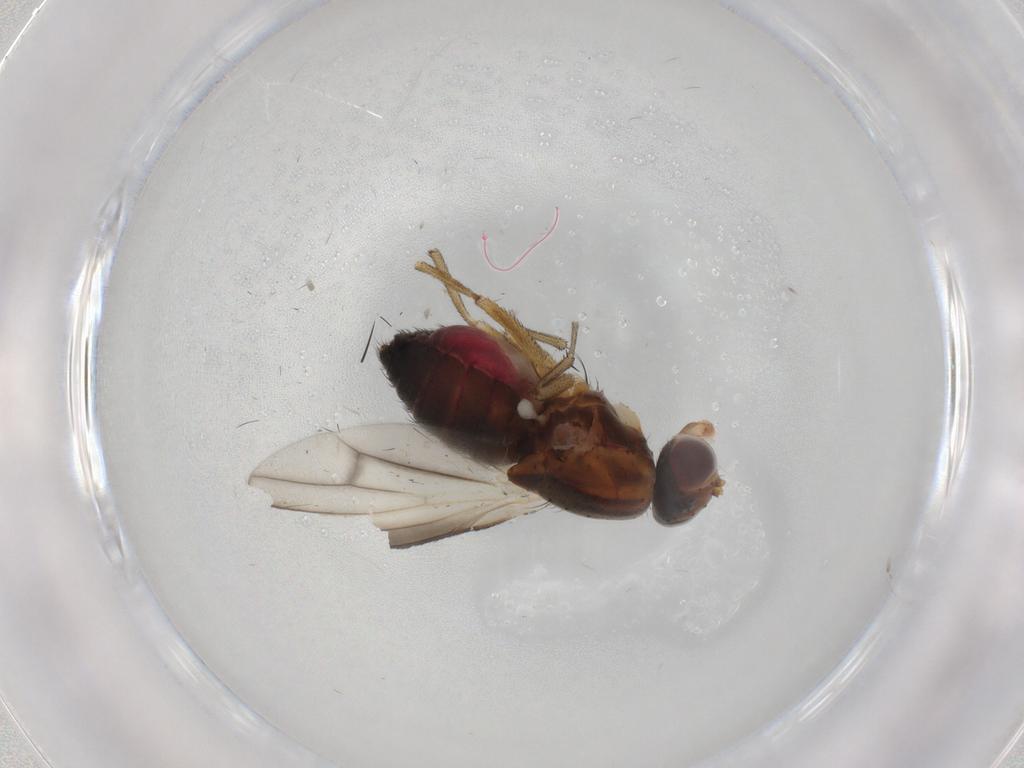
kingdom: Animalia
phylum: Arthropoda
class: Insecta
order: Diptera
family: Heleomyzidae
